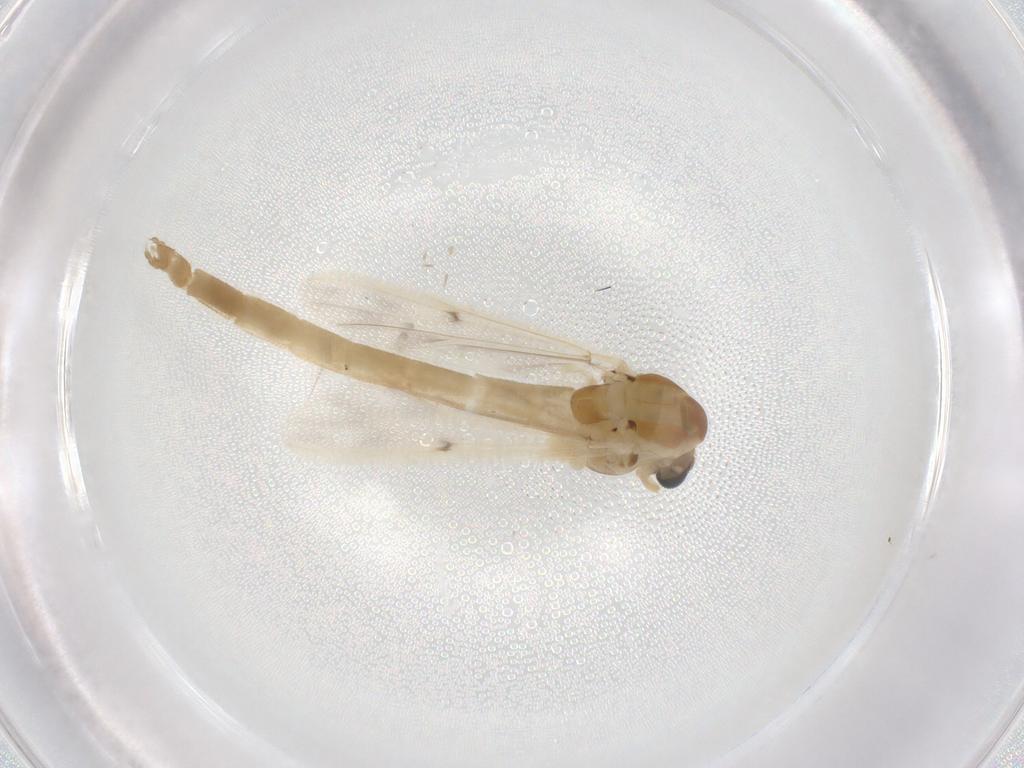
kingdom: Animalia
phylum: Arthropoda
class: Insecta
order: Diptera
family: Chironomidae
